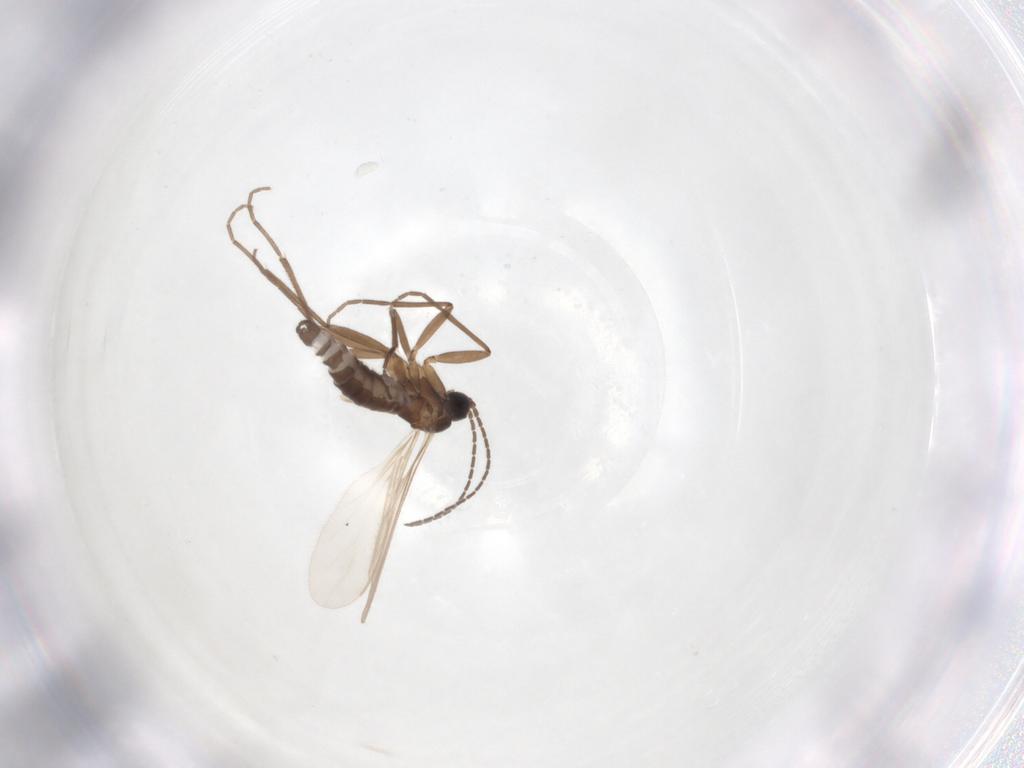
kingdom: Animalia
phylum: Arthropoda
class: Insecta
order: Diptera
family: Sciaridae
